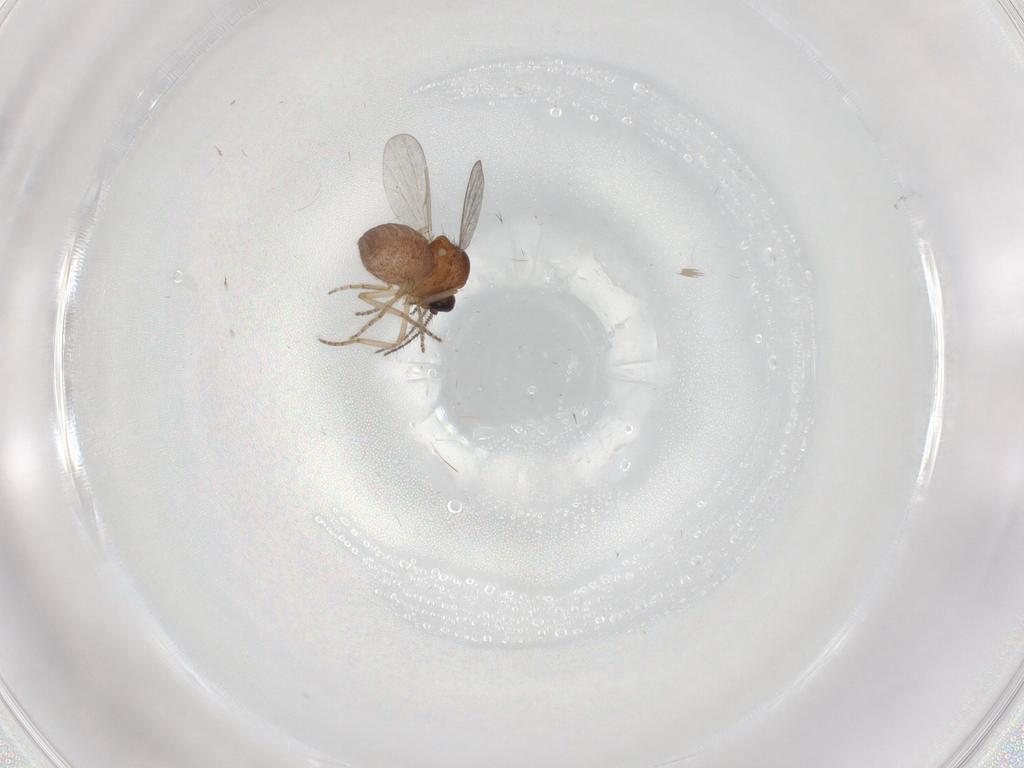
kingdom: Animalia
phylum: Arthropoda
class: Insecta
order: Diptera
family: Ceratopogonidae
